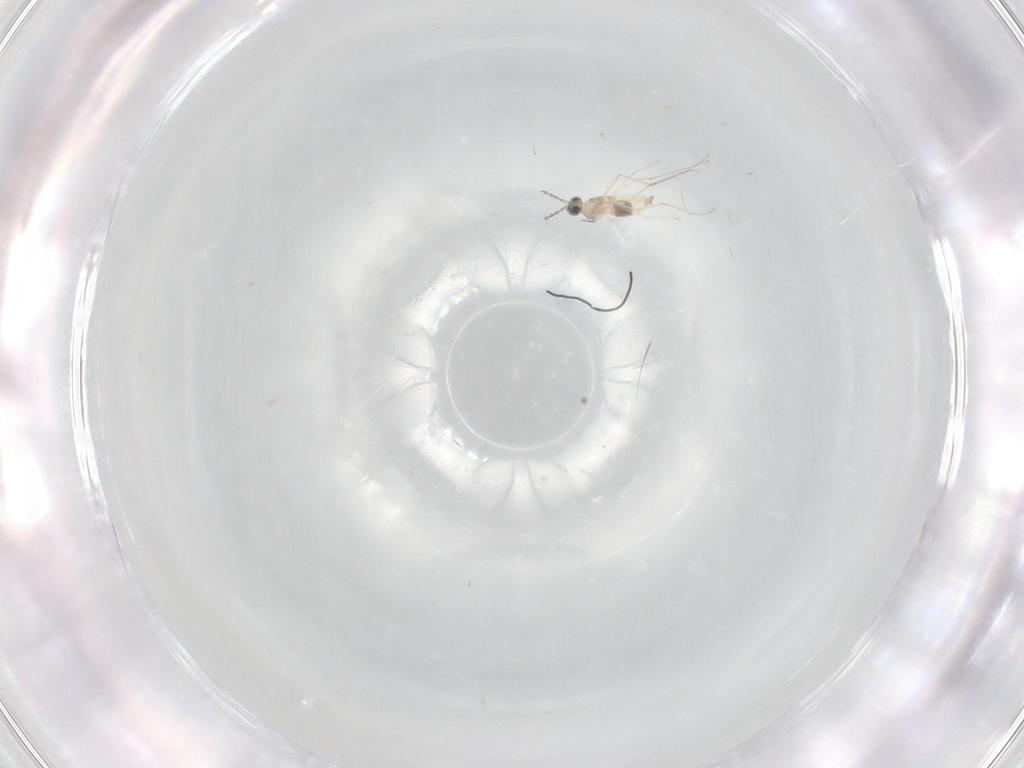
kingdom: Animalia
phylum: Arthropoda
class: Insecta
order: Diptera
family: Cecidomyiidae
